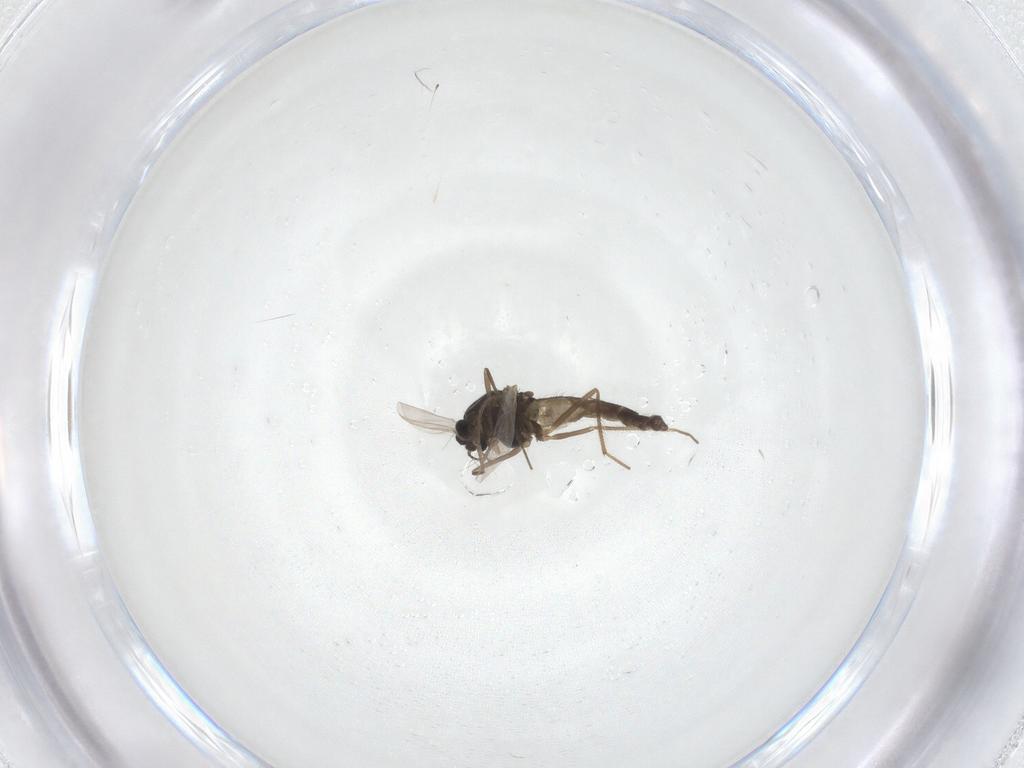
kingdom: Animalia
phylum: Arthropoda
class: Insecta
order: Diptera
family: Chironomidae
